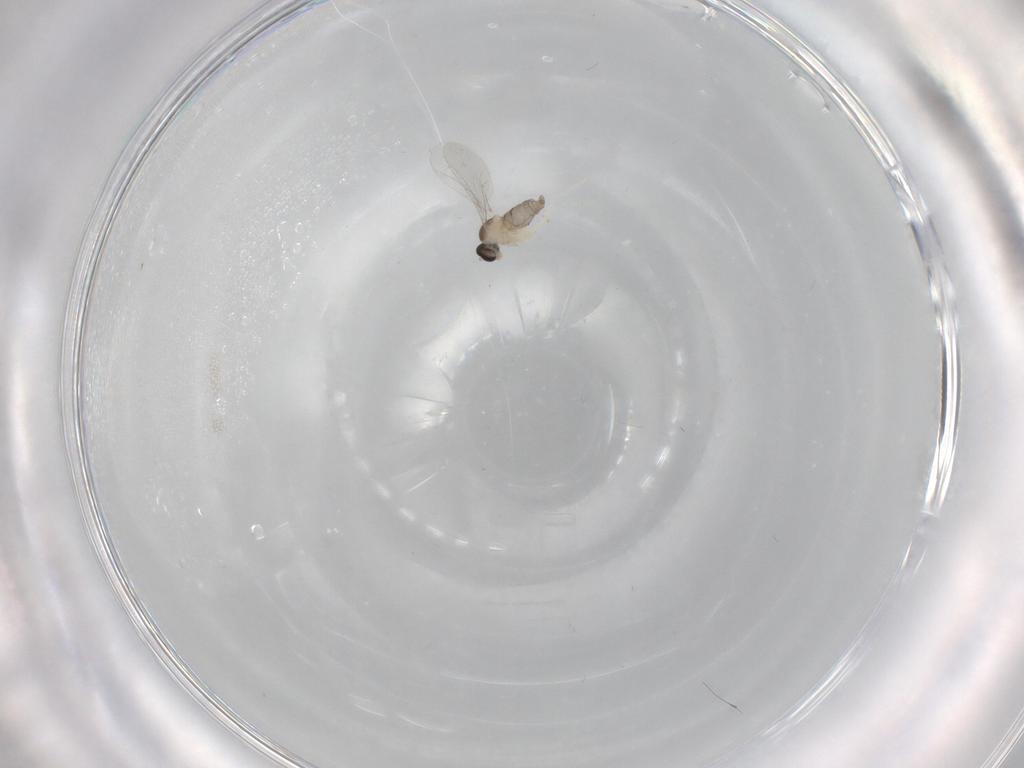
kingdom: Animalia
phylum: Arthropoda
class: Insecta
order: Diptera
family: Cecidomyiidae
